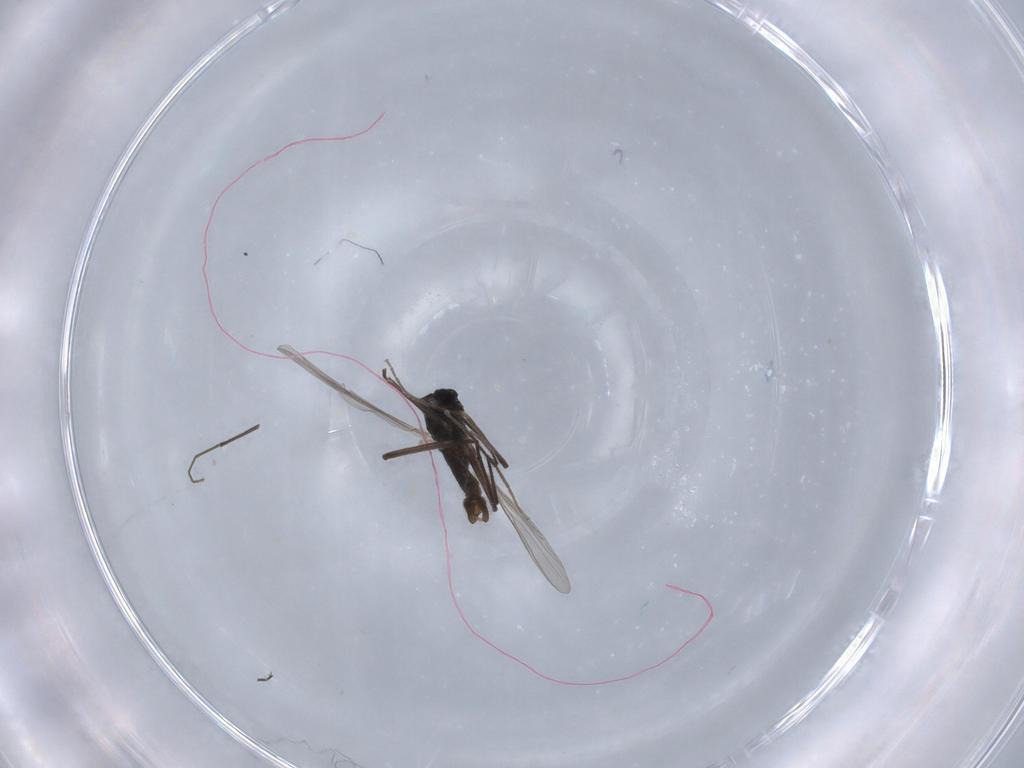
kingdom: Animalia
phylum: Arthropoda
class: Insecta
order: Diptera
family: Chironomidae
